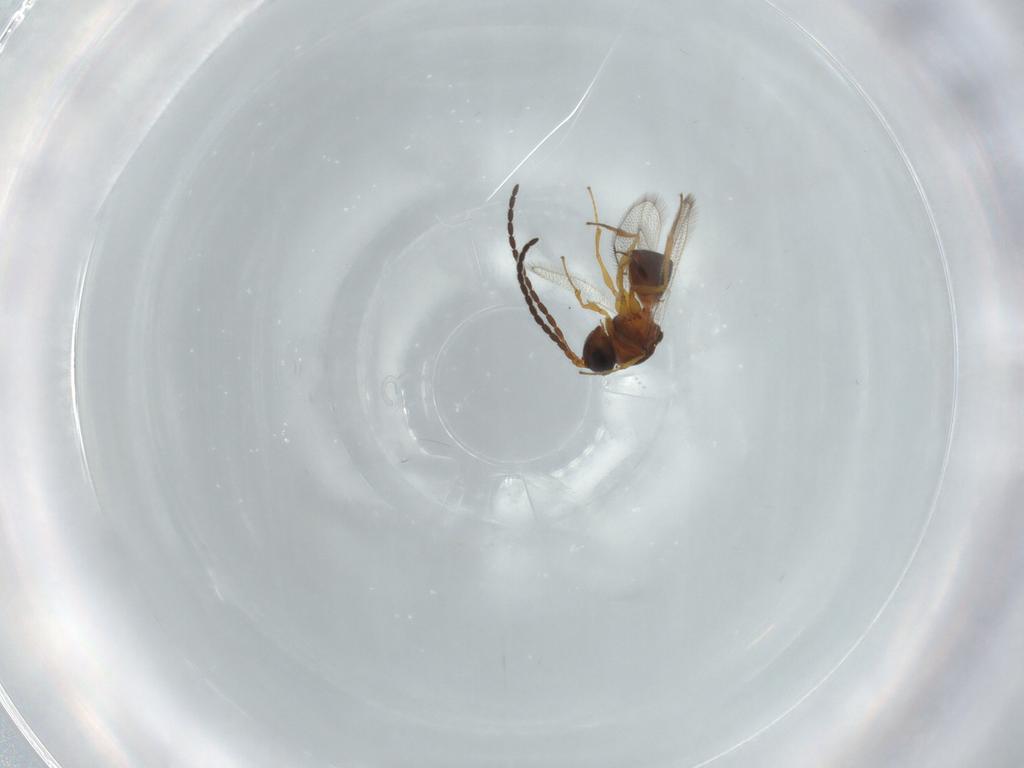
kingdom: Animalia
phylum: Arthropoda
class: Insecta
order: Hymenoptera
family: Figitidae
